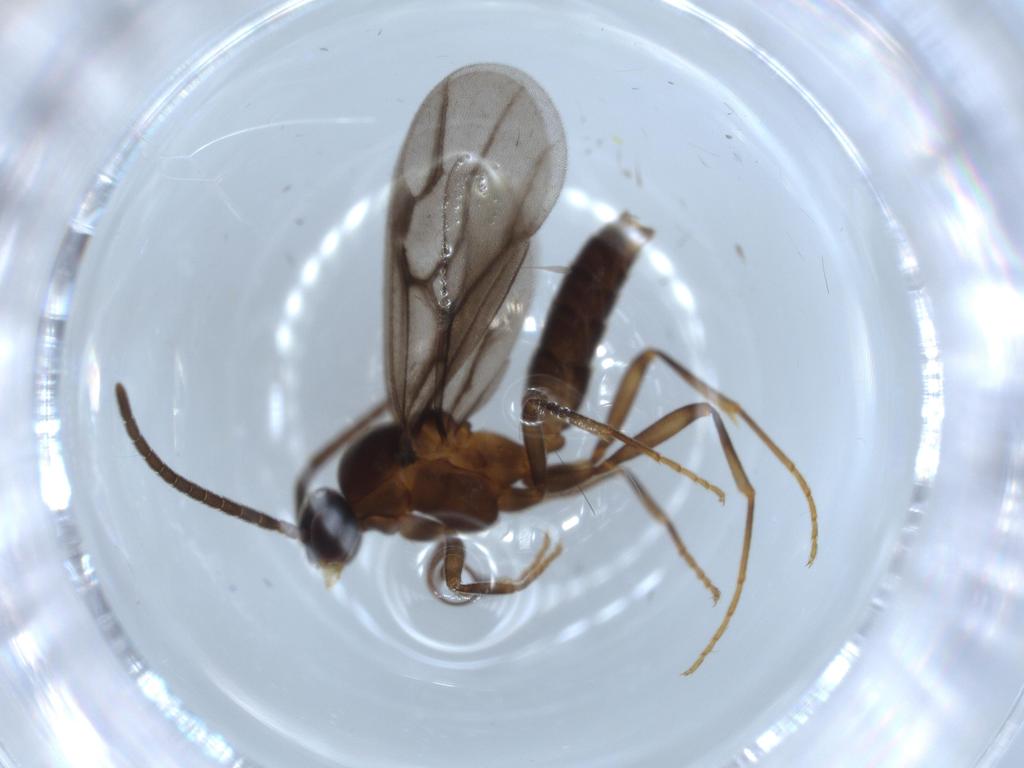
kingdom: Animalia
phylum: Arthropoda
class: Insecta
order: Hymenoptera
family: Formicidae
